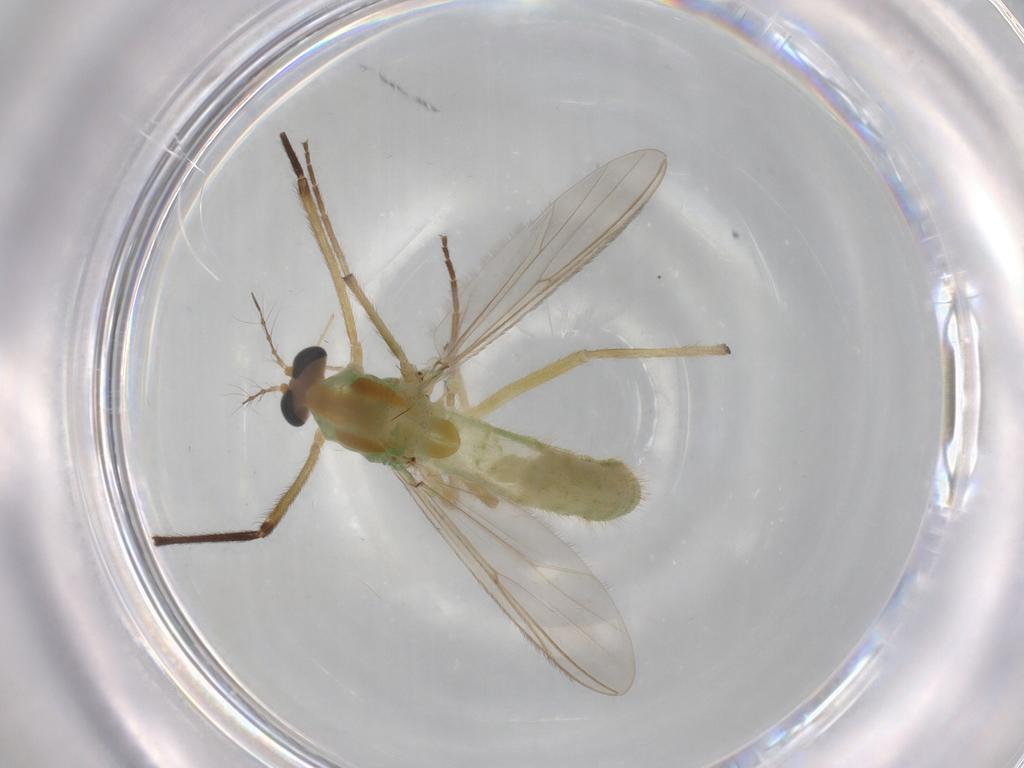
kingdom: Animalia
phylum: Arthropoda
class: Insecta
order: Diptera
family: Chironomidae
